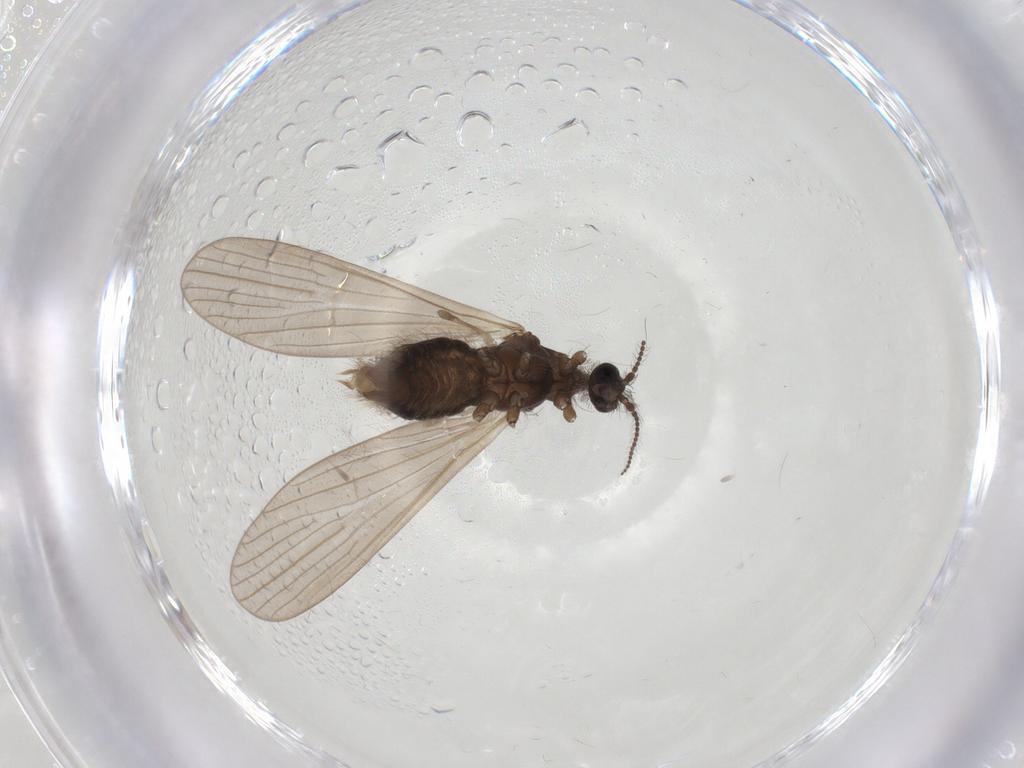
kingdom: Animalia
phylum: Arthropoda
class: Insecta
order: Diptera
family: Limoniidae
